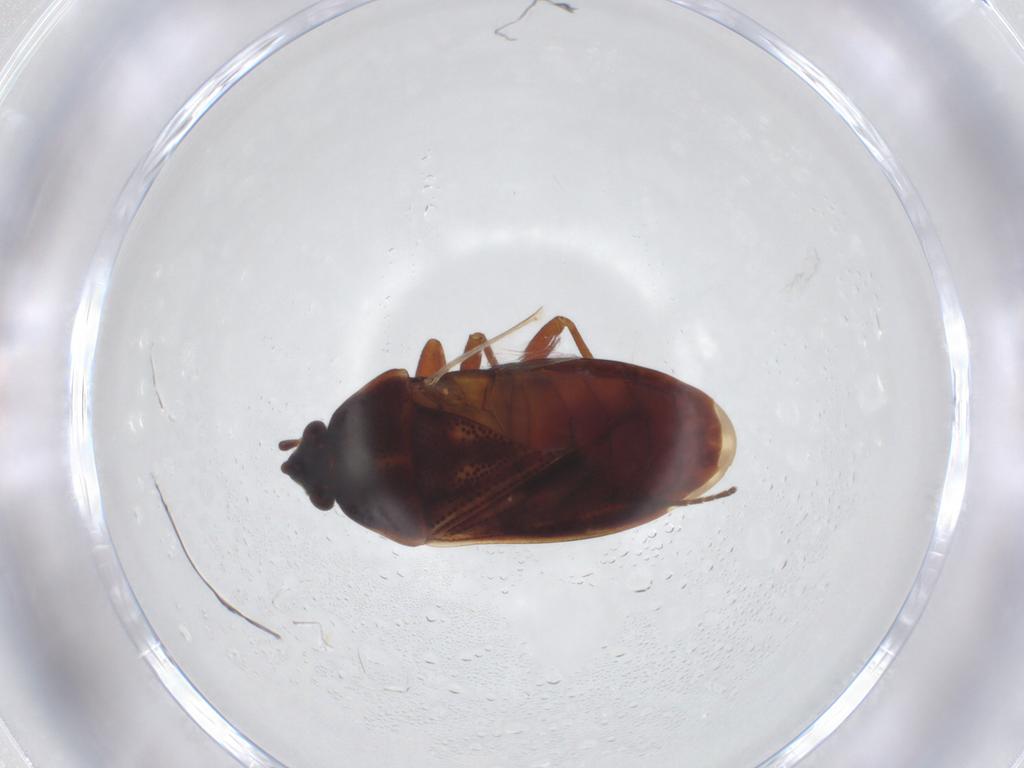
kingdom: Animalia
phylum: Arthropoda
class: Insecta
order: Hemiptera
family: Rhyparochromidae
